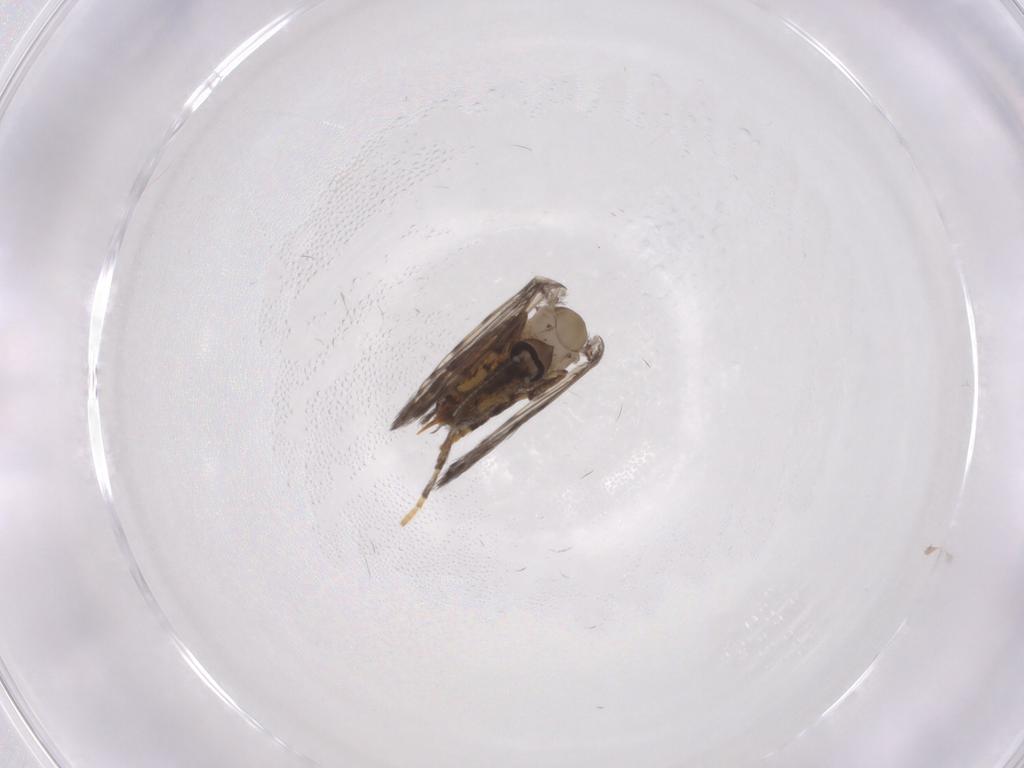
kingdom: Animalia
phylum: Arthropoda
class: Insecta
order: Diptera
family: Psychodidae
